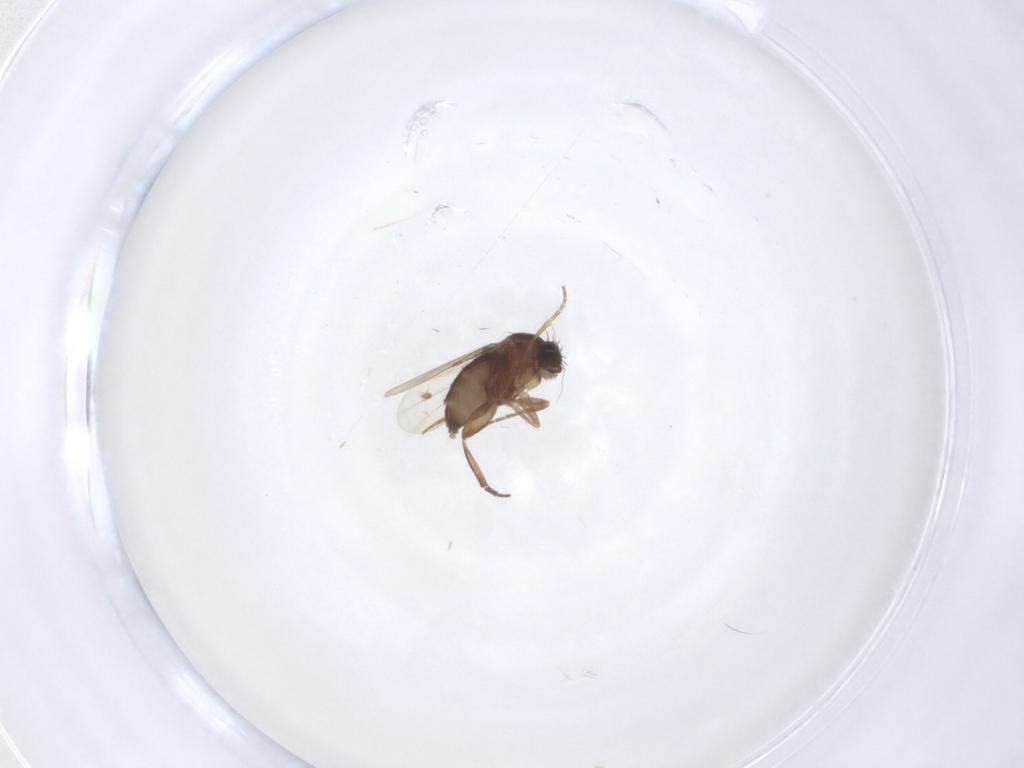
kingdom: Animalia
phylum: Arthropoda
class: Insecta
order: Diptera
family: Phoridae
